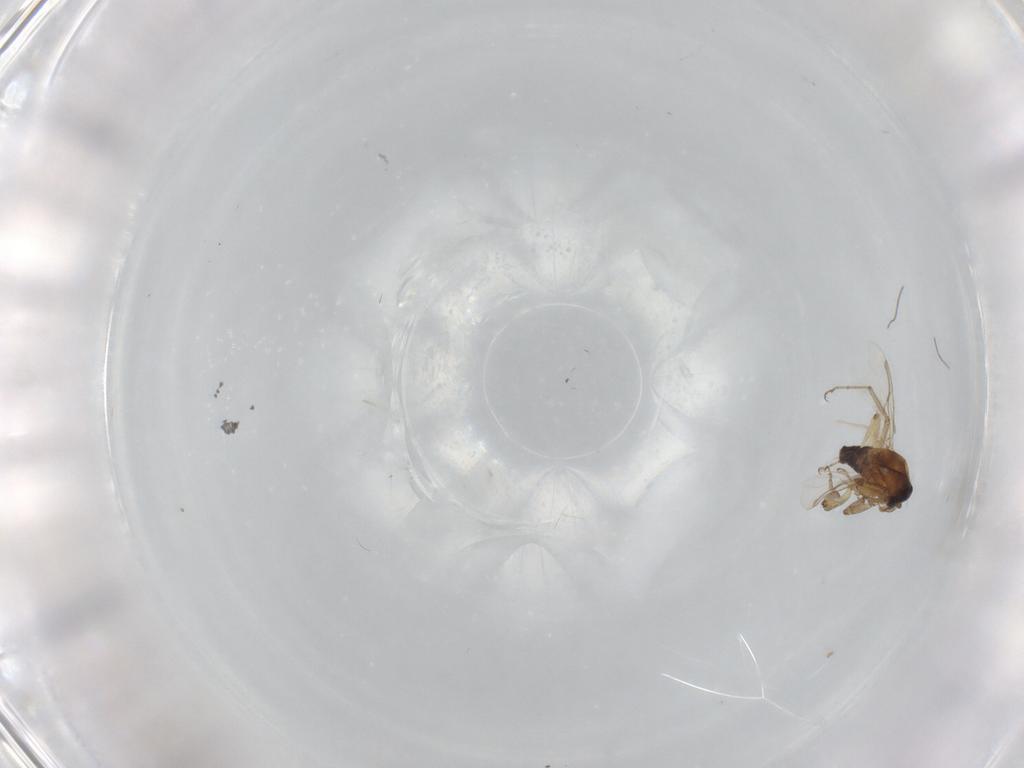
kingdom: Animalia
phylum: Arthropoda
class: Insecta
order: Diptera
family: Ceratopogonidae
